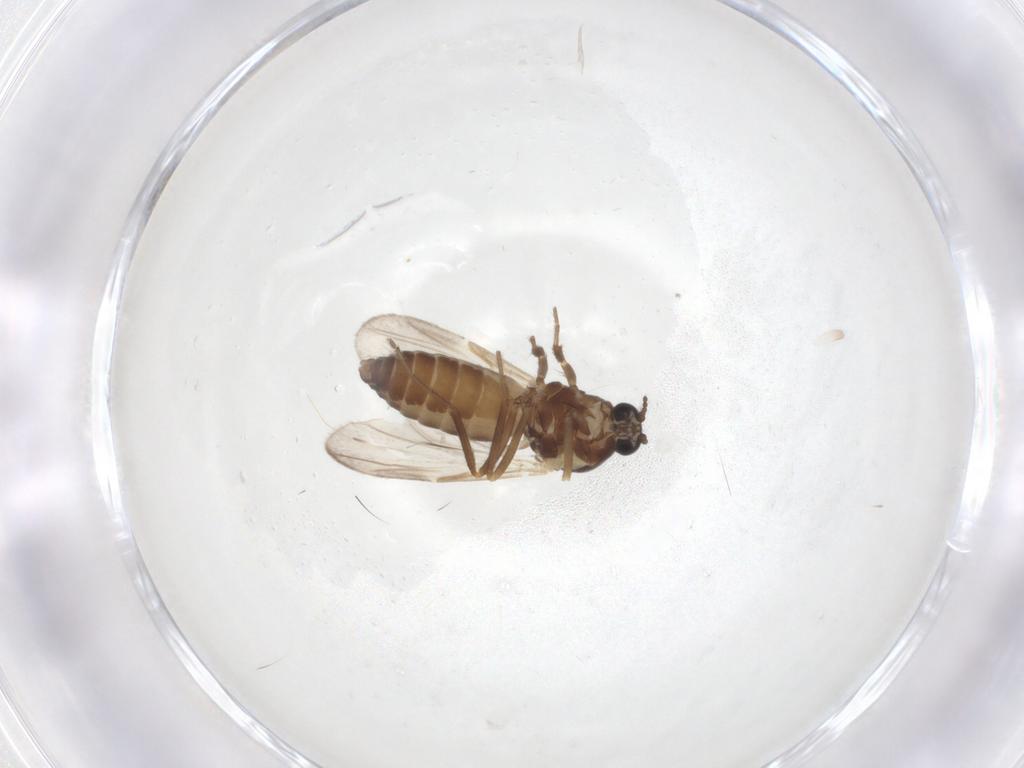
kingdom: Animalia
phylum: Arthropoda
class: Insecta
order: Diptera
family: Ceratopogonidae
